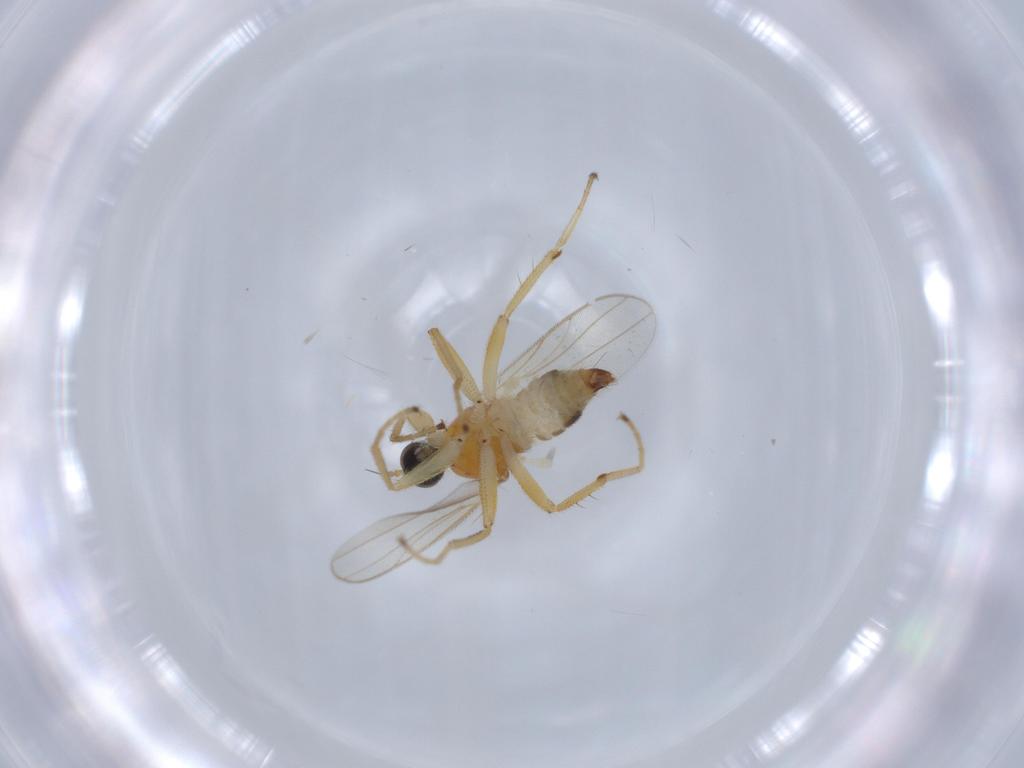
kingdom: Animalia
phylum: Arthropoda
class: Insecta
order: Diptera
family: Hybotidae
